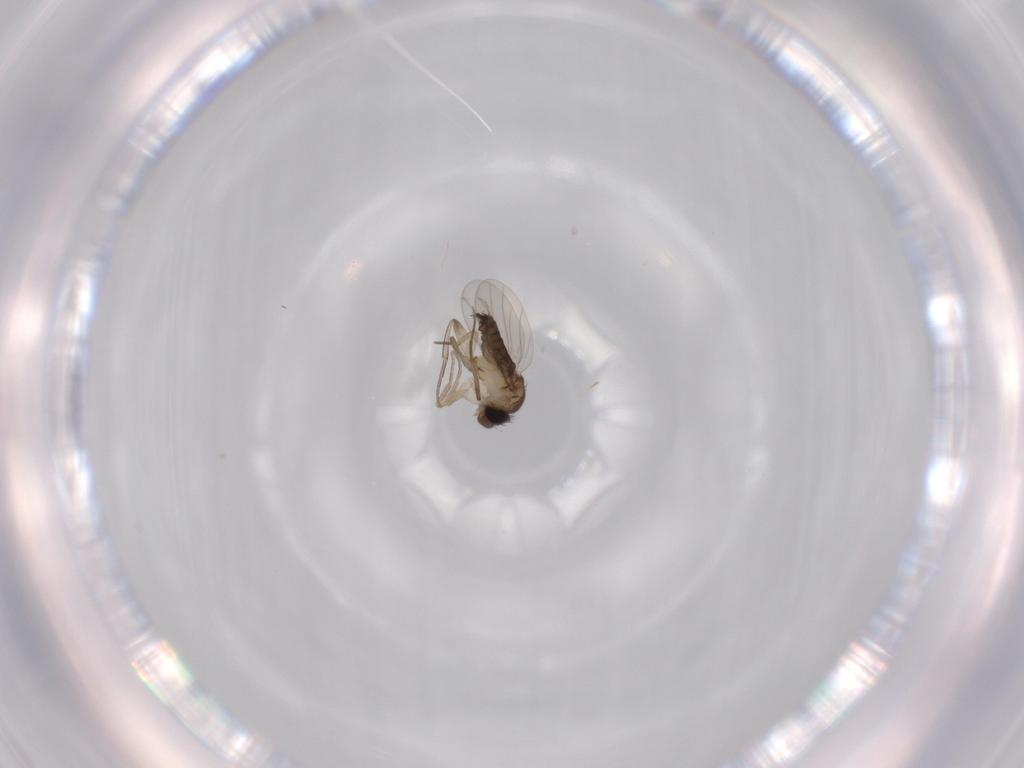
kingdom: Animalia
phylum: Arthropoda
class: Insecta
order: Diptera
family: Phoridae
